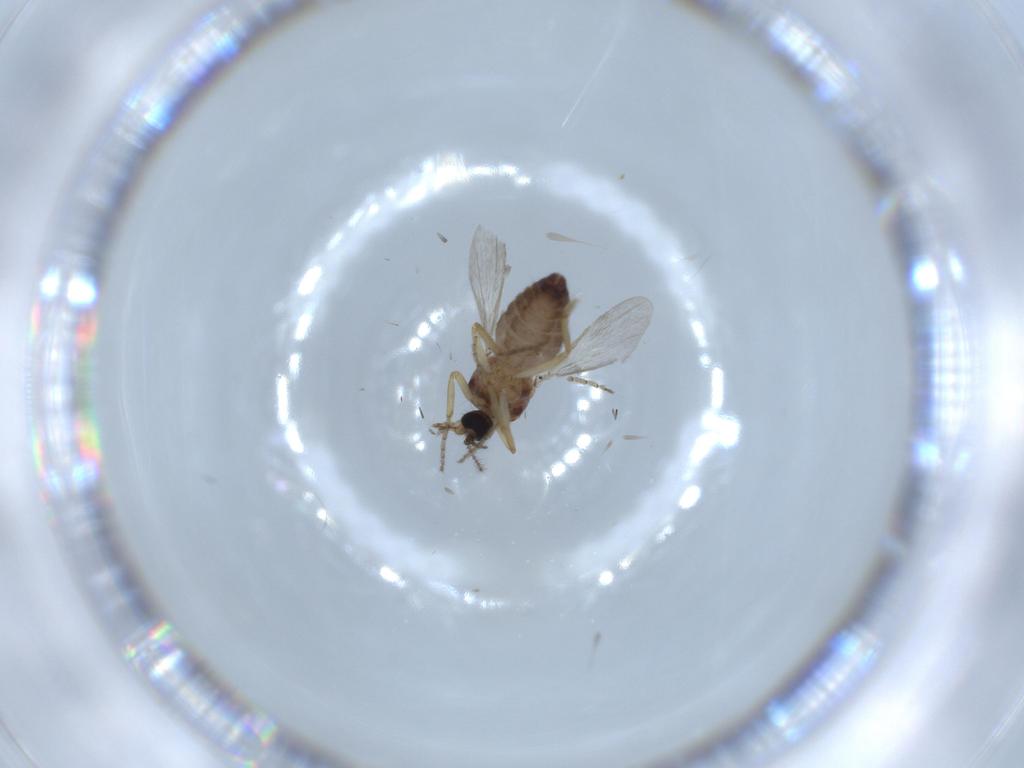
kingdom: Animalia
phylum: Arthropoda
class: Insecta
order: Diptera
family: Ceratopogonidae
